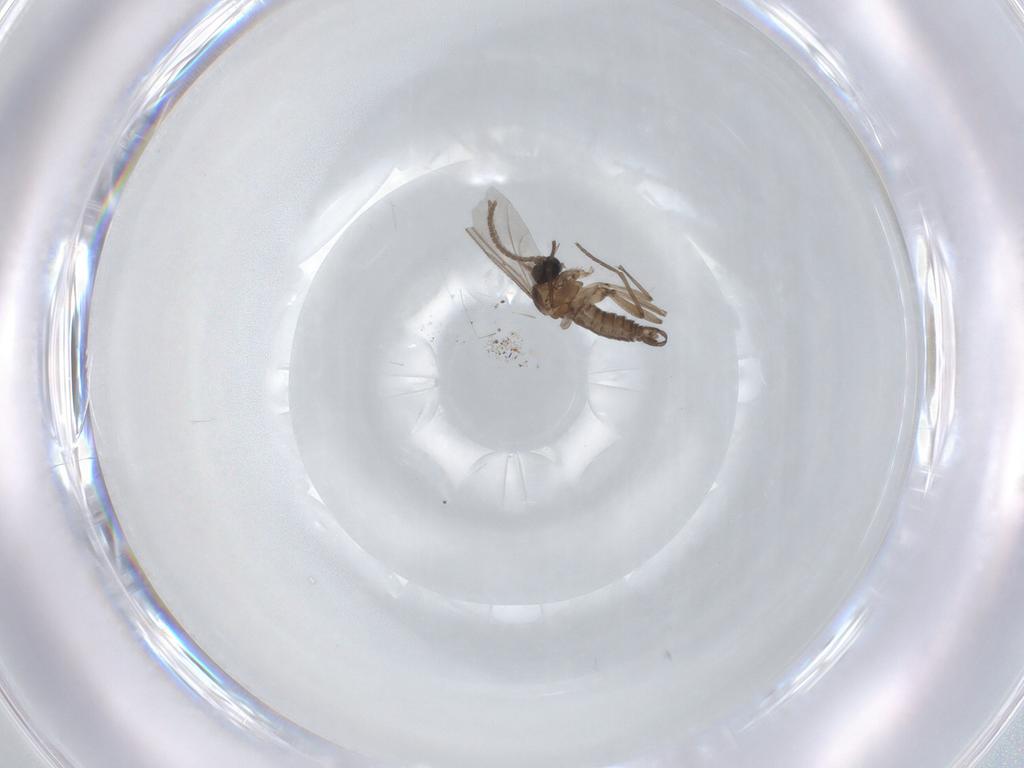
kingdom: Animalia
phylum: Arthropoda
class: Insecta
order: Diptera
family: Sciaridae
